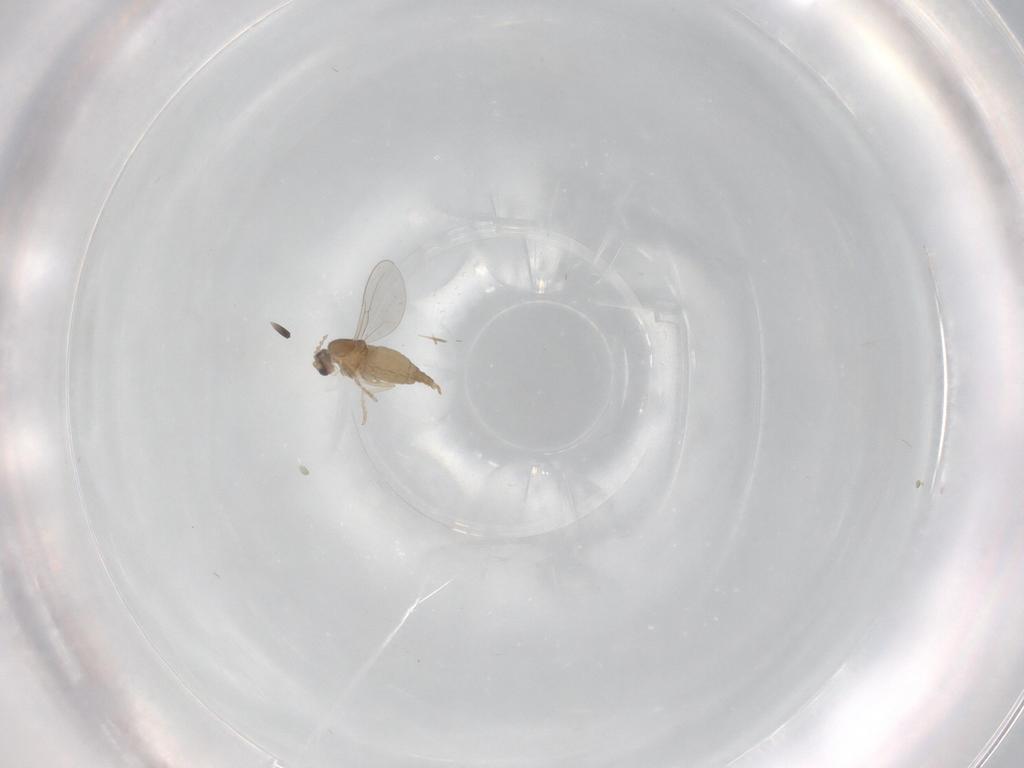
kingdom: Animalia
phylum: Arthropoda
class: Insecta
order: Diptera
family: Cecidomyiidae
